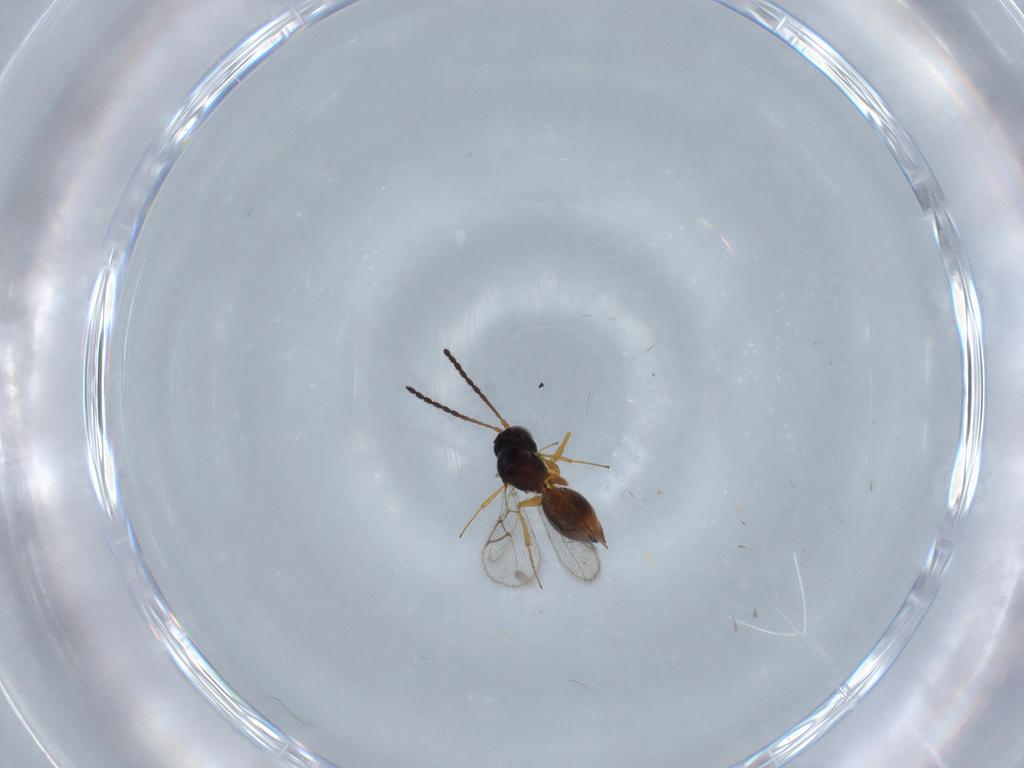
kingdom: Animalia
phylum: Arthropoda
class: Insecta
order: Hymenoptera
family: Figitidae
